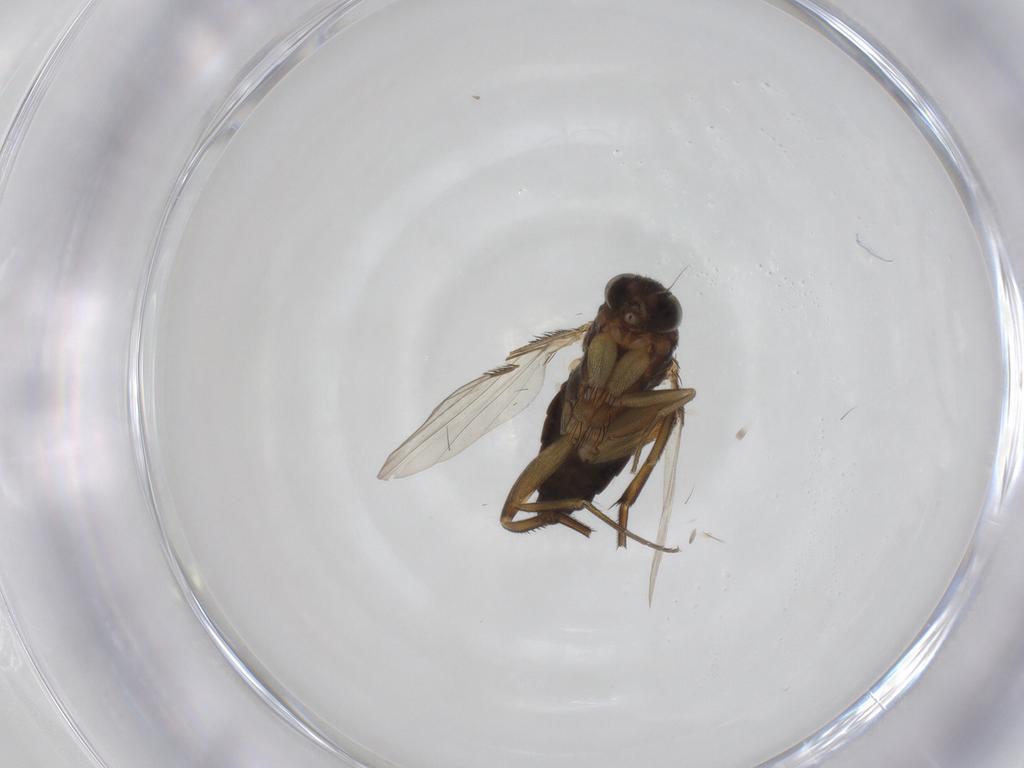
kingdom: Animalia
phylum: Arthropoda
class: Insecta
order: Diptera
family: Phoridae
